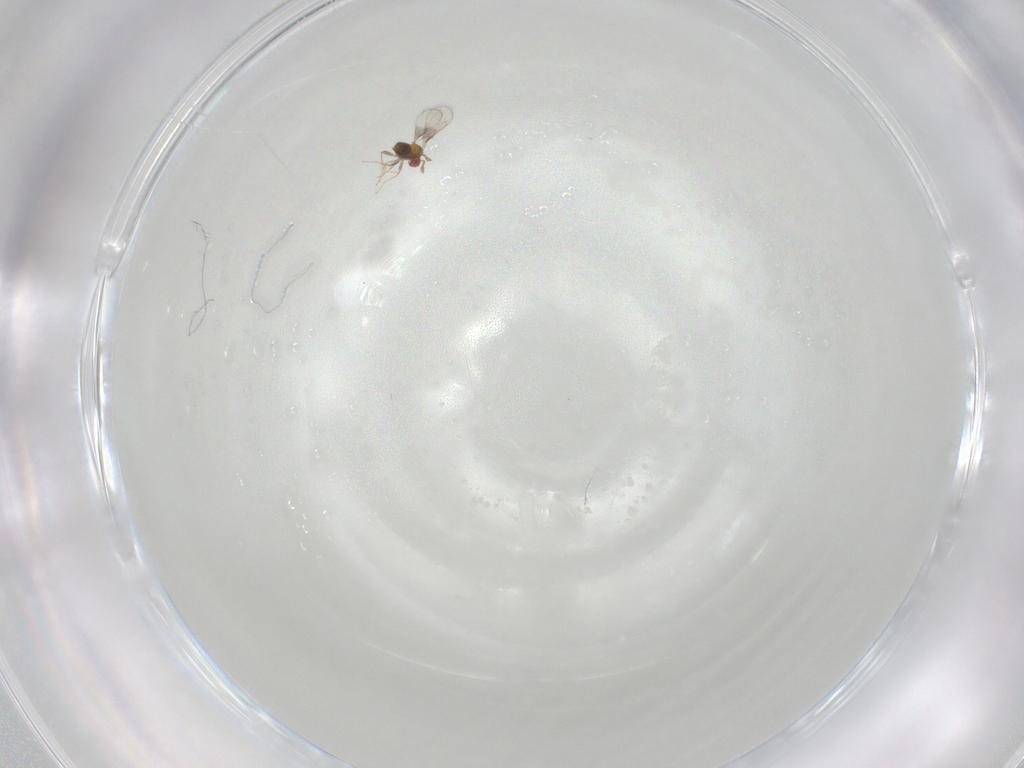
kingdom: Animalia
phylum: Arthropoda
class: Insecta
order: Hymenoptera
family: Trichogrammatidae
